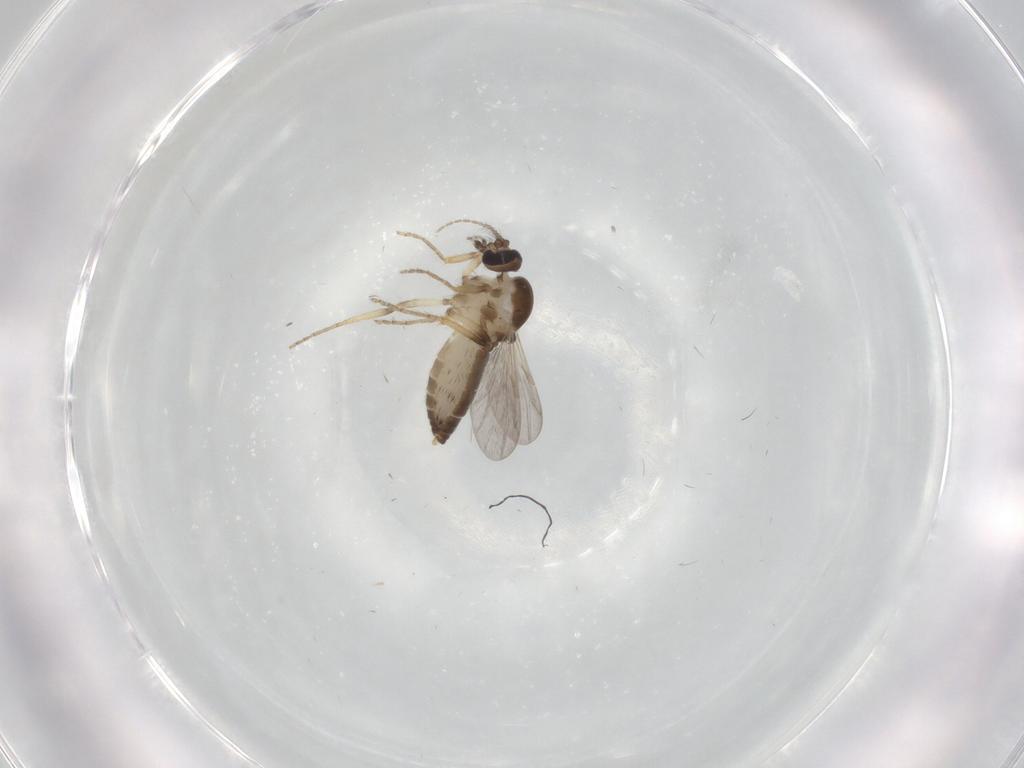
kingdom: Animalia
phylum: Arthropoda
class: Insecta
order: Diptera
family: Ceratopogonidae
